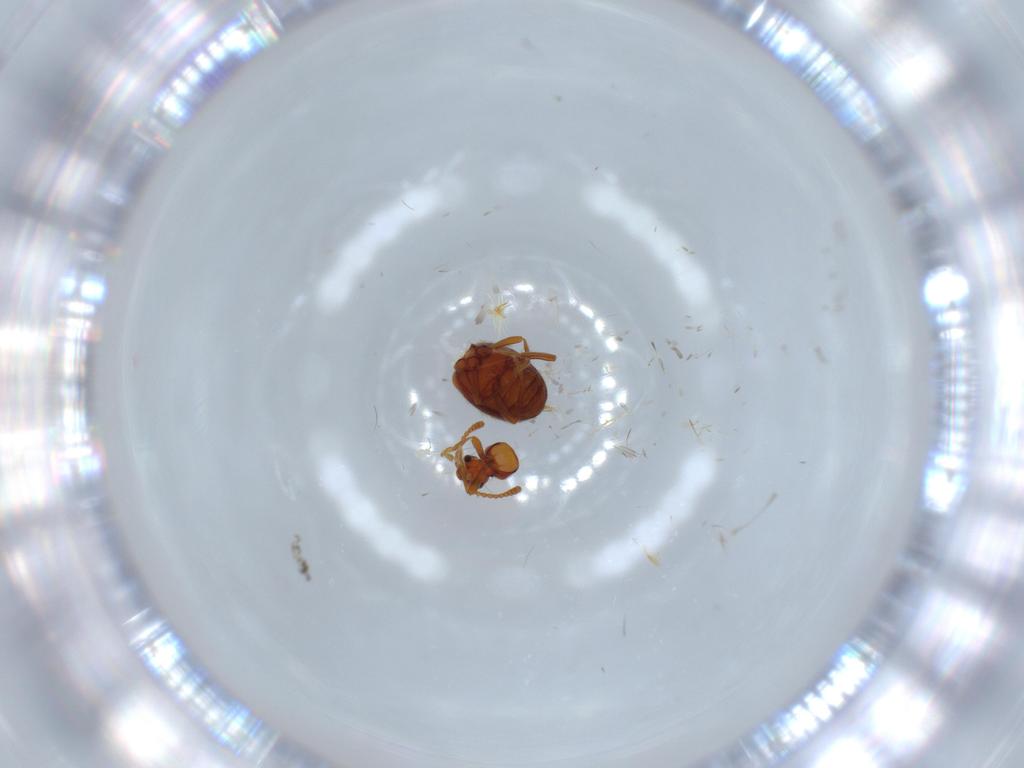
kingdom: Animalia
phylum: Arthropoda
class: Insecta
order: Coleoptera
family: Aderidae
